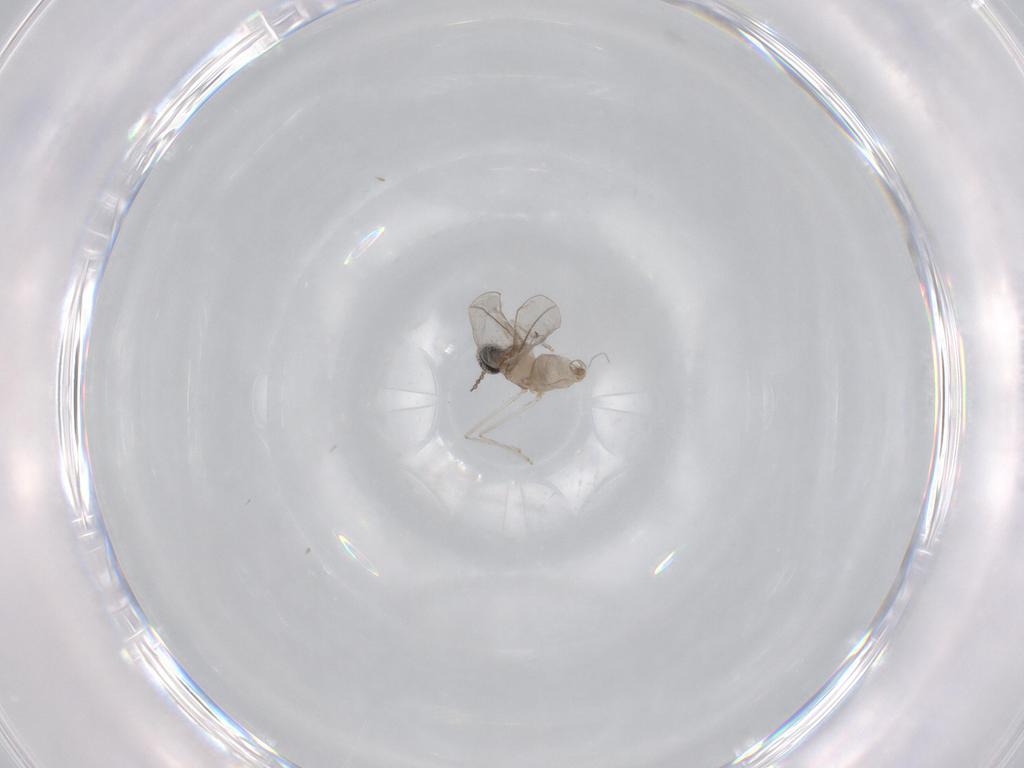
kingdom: Animalia
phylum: Arthropoda
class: Insecta
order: Diptera
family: Cecidomyiidae
